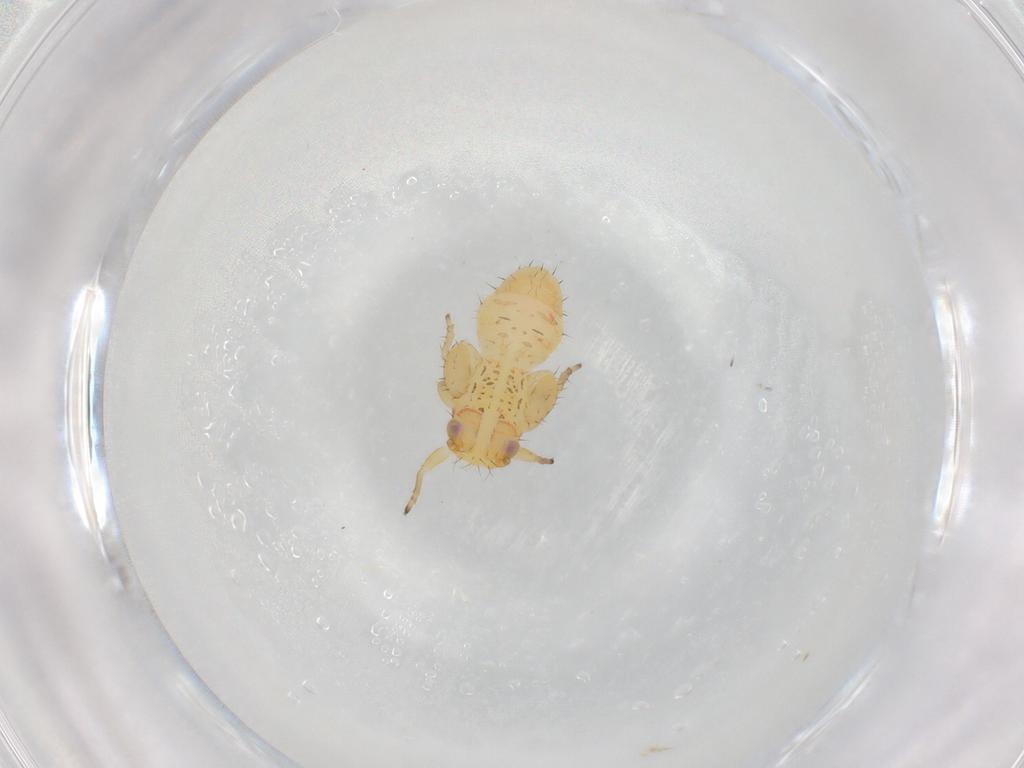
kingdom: Animalia
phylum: Arthropoda
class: Insecta
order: Hemiptera
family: Psyllidae
